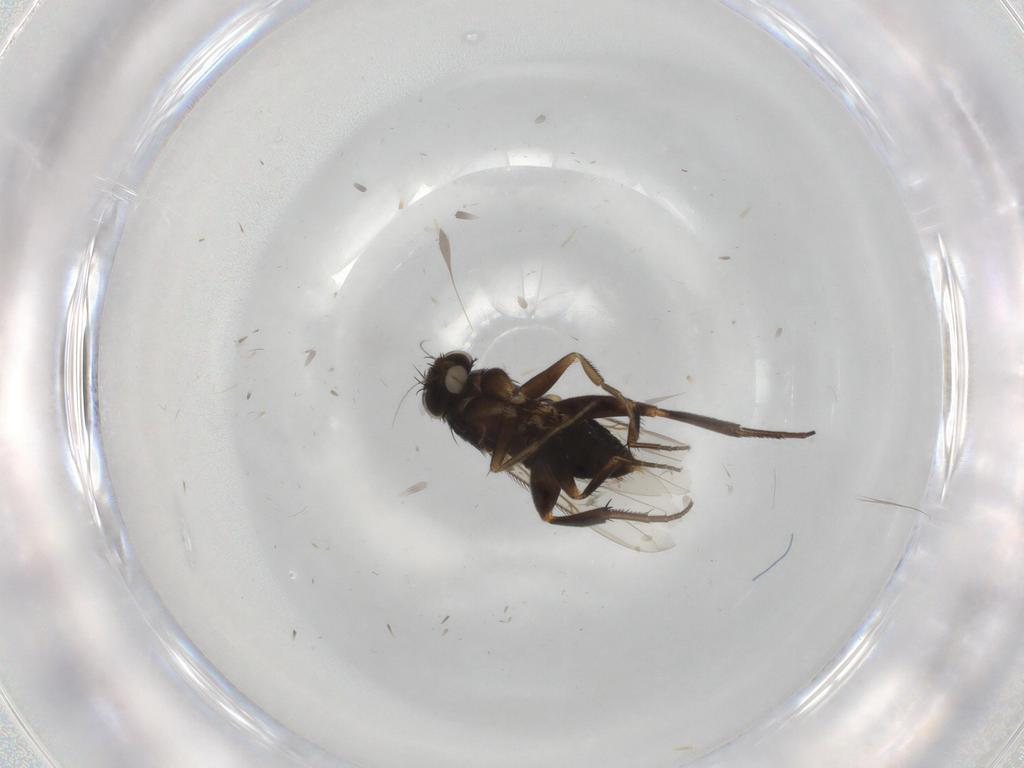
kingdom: Animalia
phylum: Arthropoda
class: Insecta
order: Diptera
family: Phoridae
